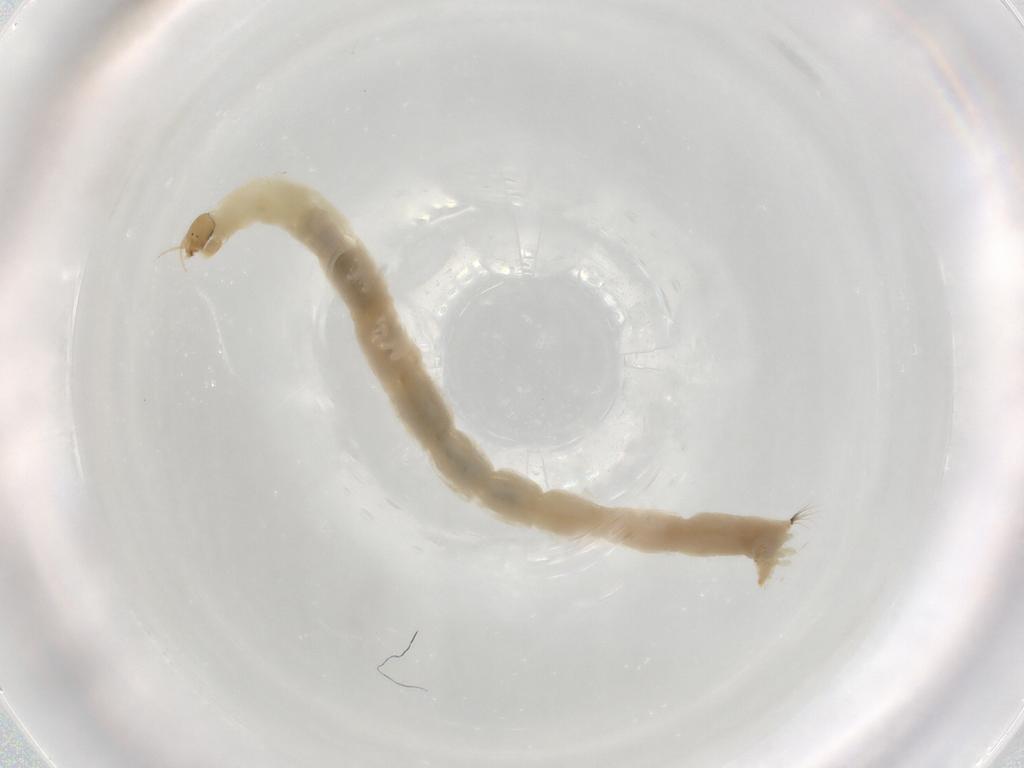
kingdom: Animalia
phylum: Arthropoda
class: Insecta
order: Diptera
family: Chironomidae
